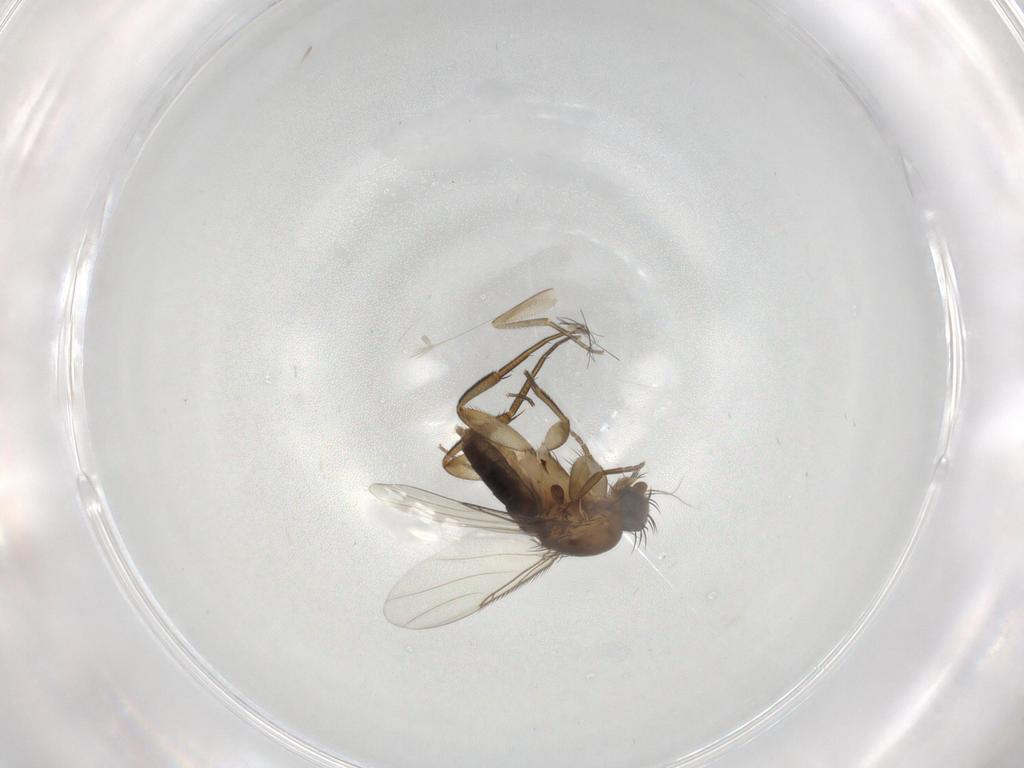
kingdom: Animalia
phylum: Arthropoda
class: Insecta
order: Diptera
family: Phoridae
